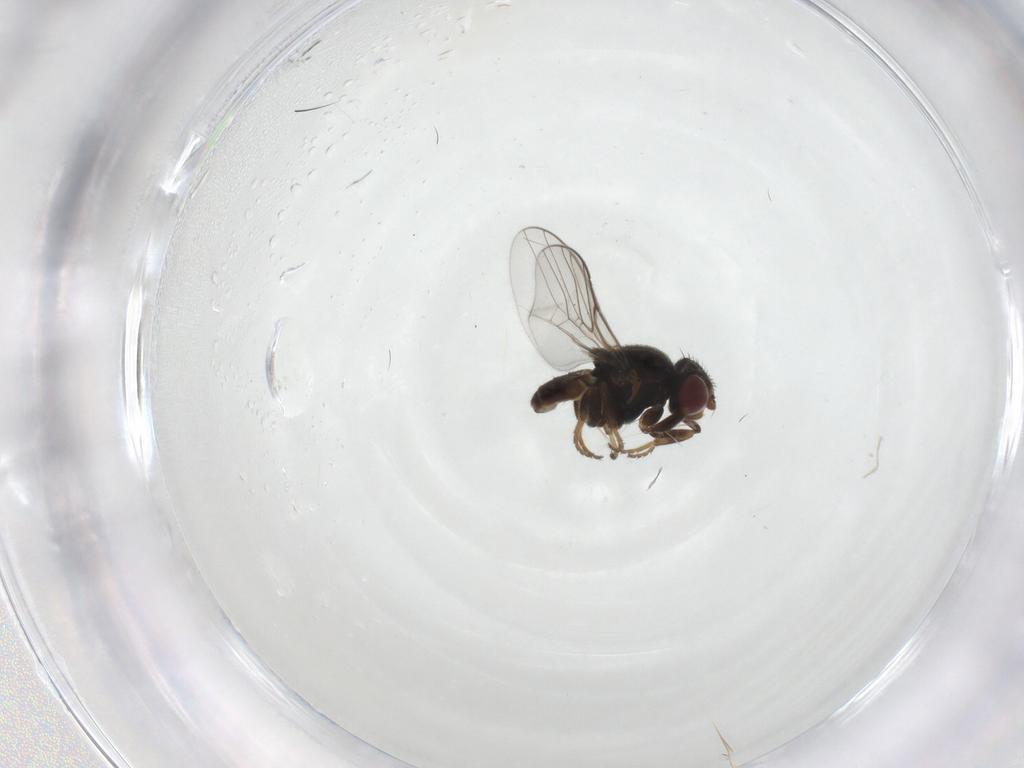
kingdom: Animalia
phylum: Arthropoda
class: Insecta
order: Diptera
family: Chloropidae
